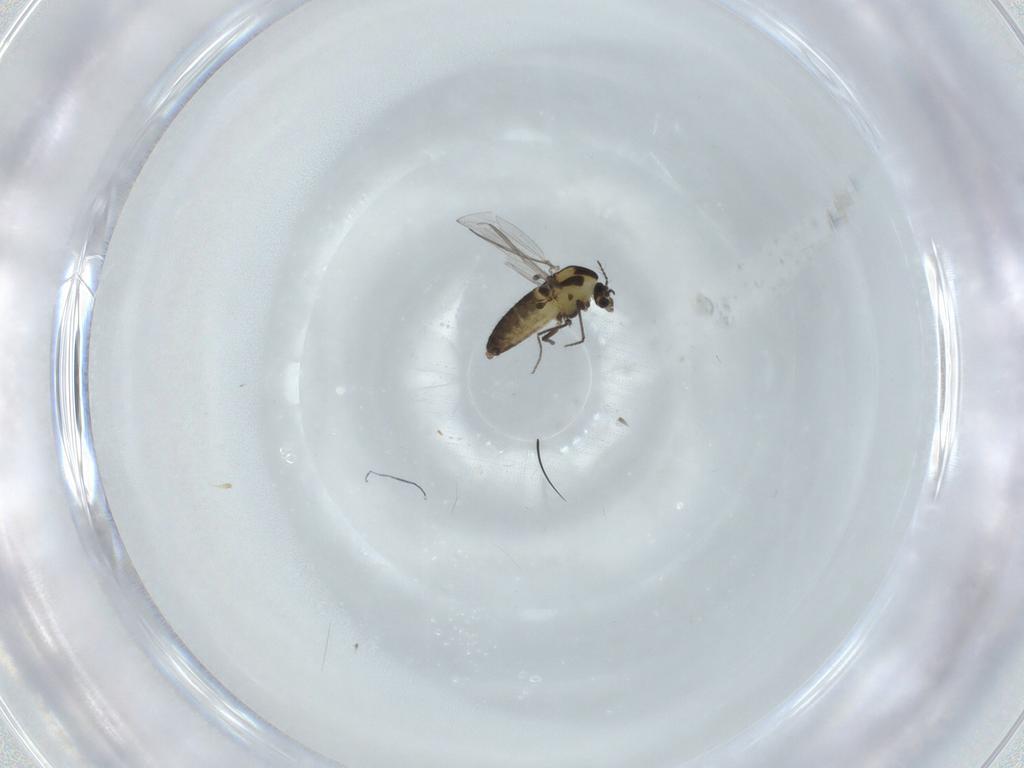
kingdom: Animalia
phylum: Arthropoda
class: Insecta
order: Diptera
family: Chironomidae
